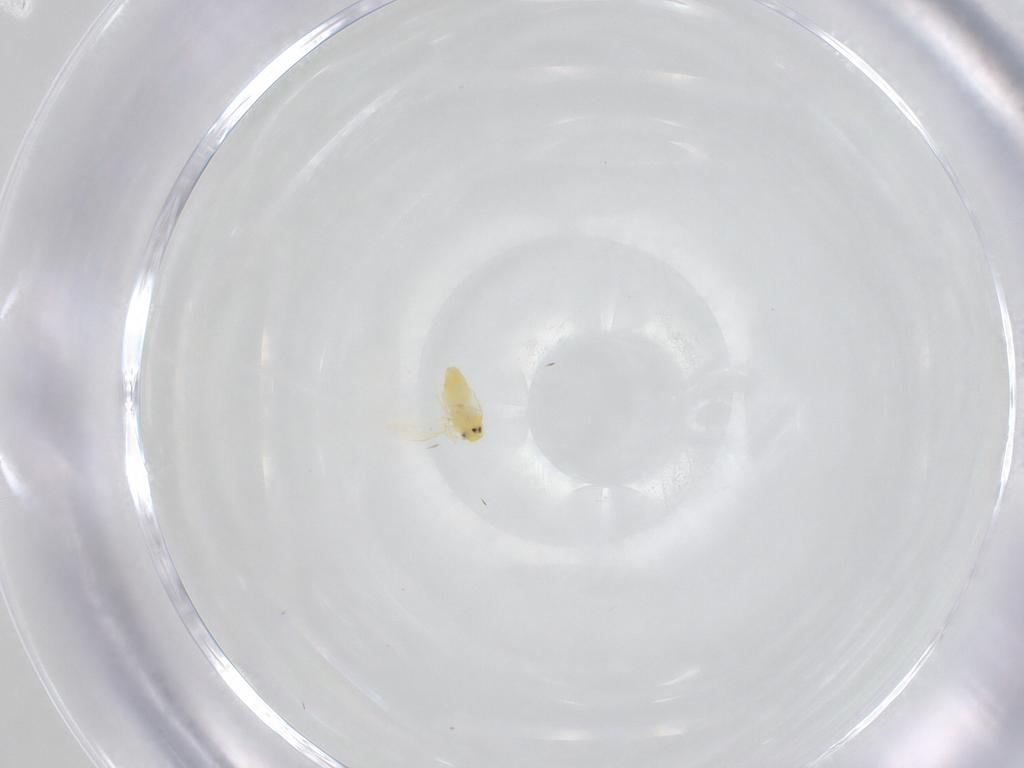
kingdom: Animalia
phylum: Arthropoda
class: Insecta
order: Hemiptera
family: Aleyrodidae
